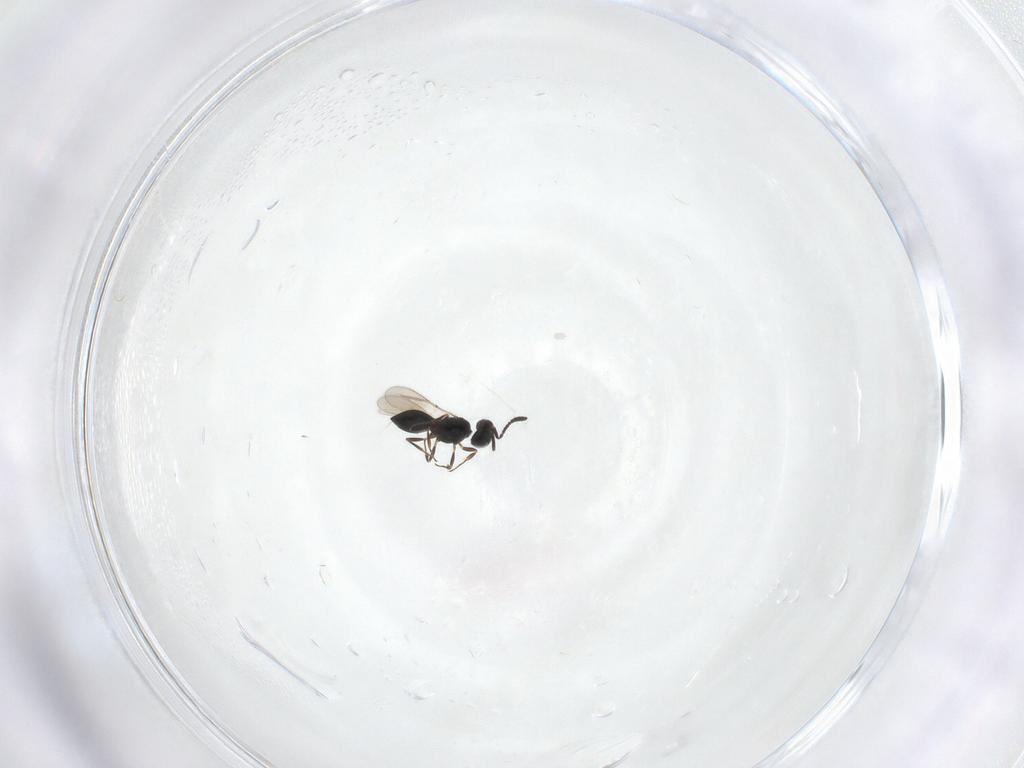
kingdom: Animalia
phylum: Arthropoda
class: Insecta
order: Hymenoptera
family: Scelionidae
